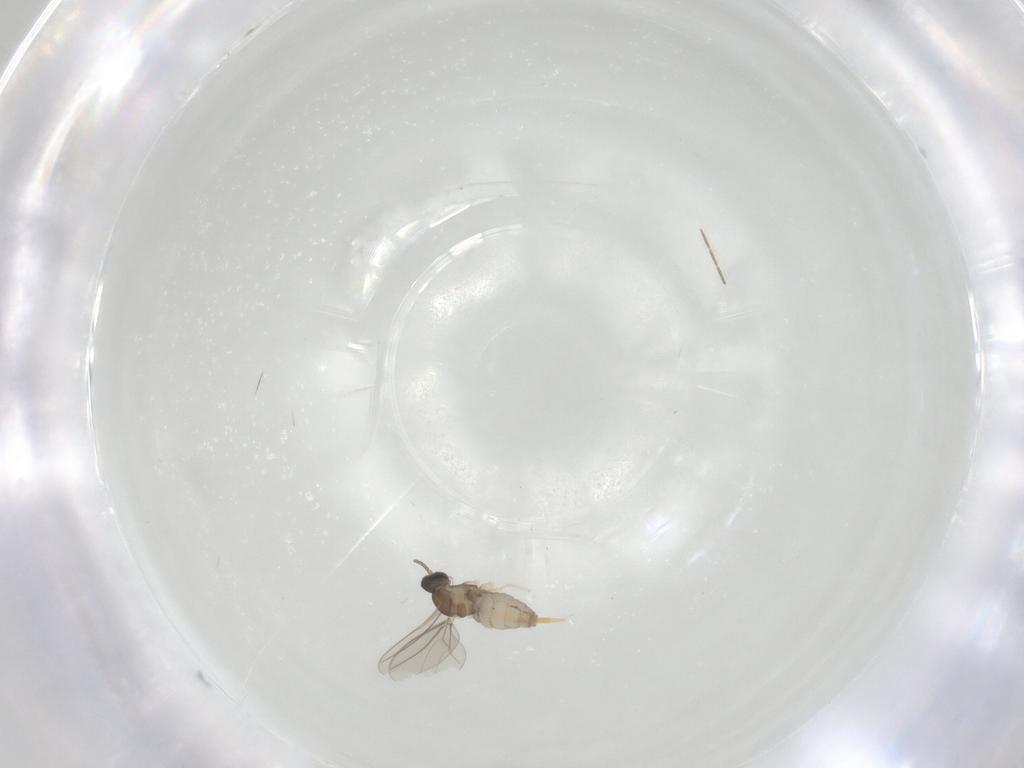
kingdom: Animalia
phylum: Arthropoda
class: Insecta
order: Diptera
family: Cecidomyiidae
